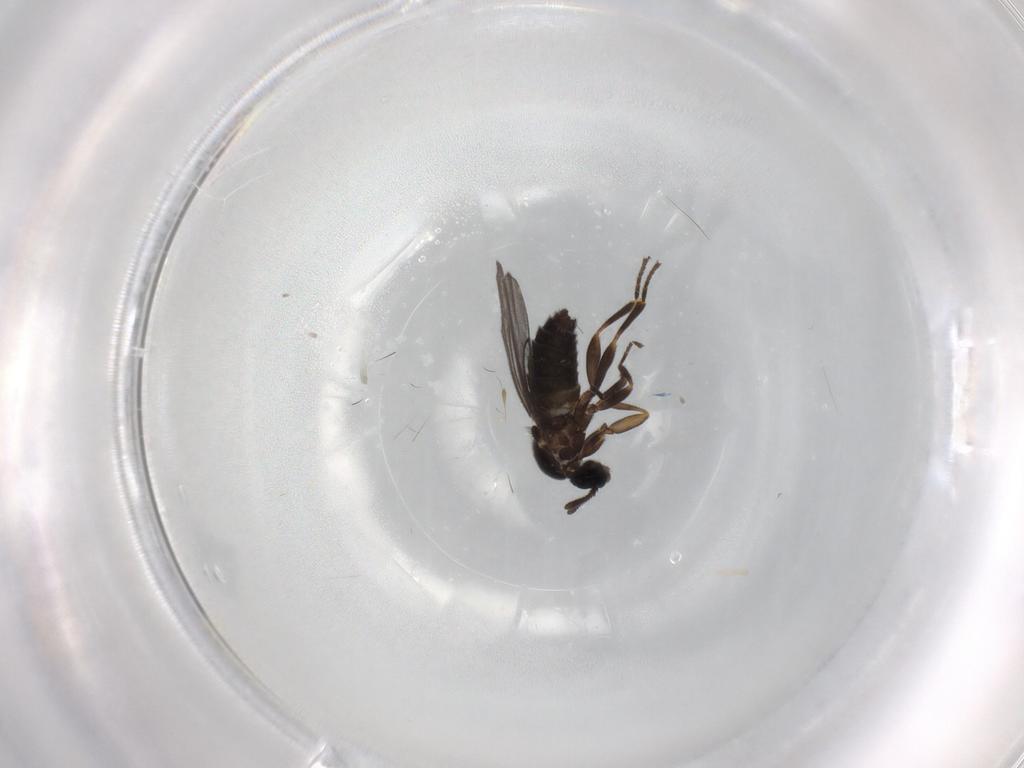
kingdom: Animalia
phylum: Arthropoda
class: Insecta
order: Diptera
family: Scatopsidae
